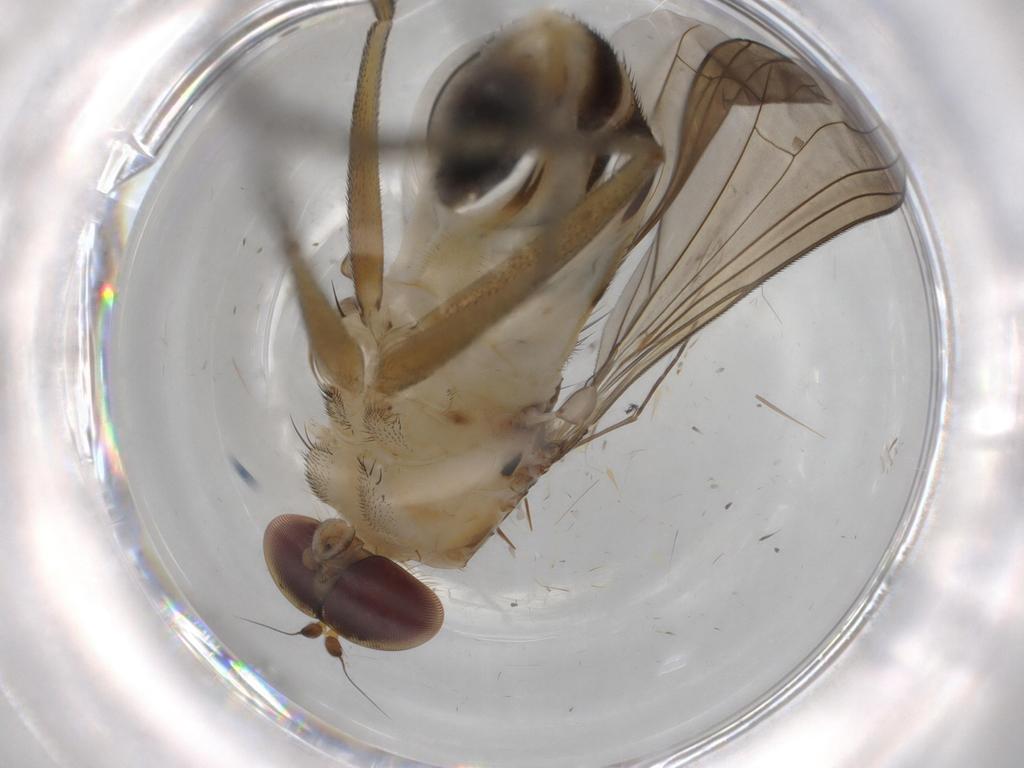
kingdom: Animalia
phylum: Arthropoda
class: Insecta
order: Diptera
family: Dolichopodidae
